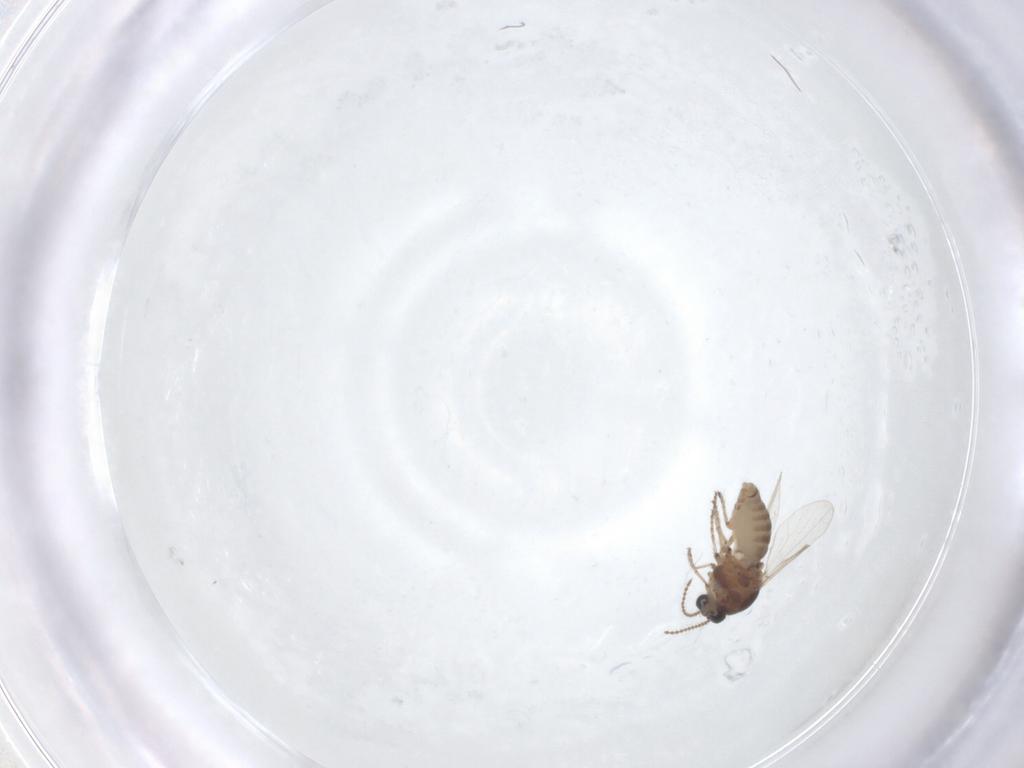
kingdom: Animalia
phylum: Arthropoda
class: Insecta
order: Diptera
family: Ceratopogonidae
